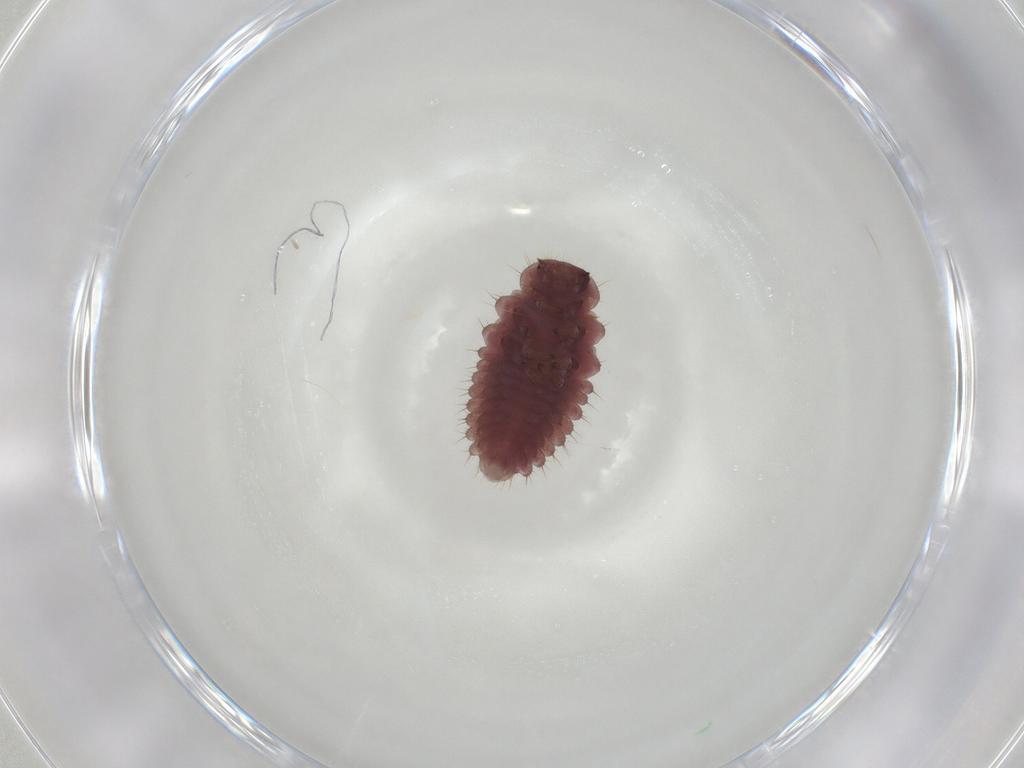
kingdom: Animalia
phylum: Arthropoda
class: Insecta
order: Coleoptera
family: Coccinellidae
